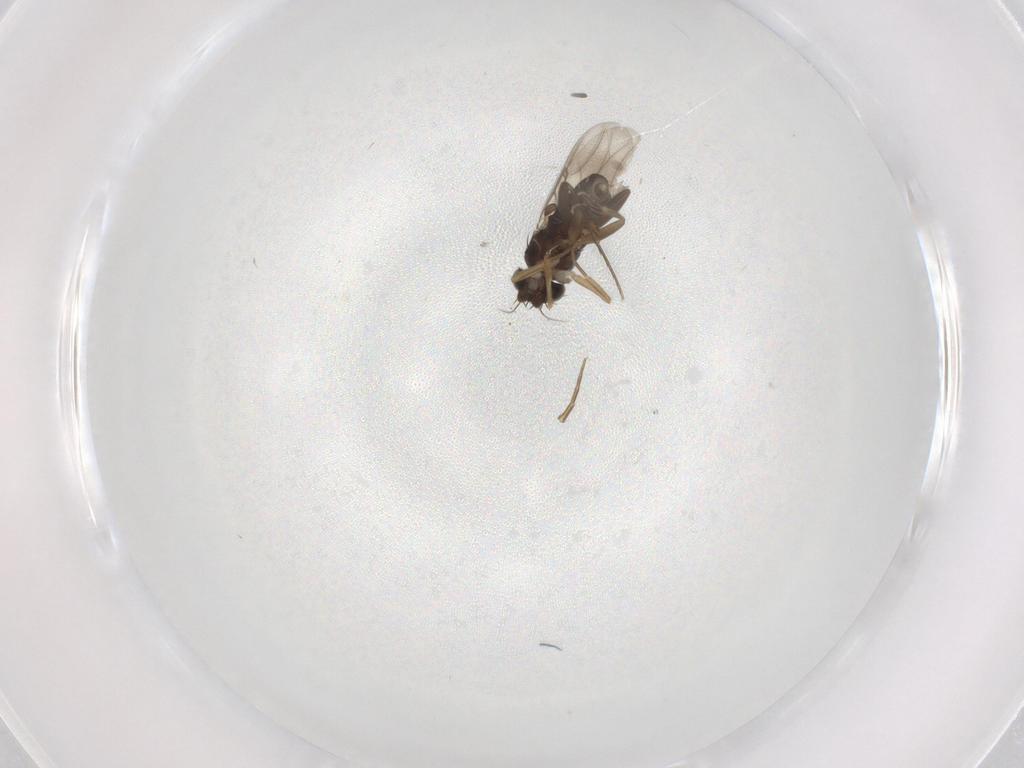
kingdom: Animalia
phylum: Arthropoda
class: Insecta
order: Diptera
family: Phoridae
